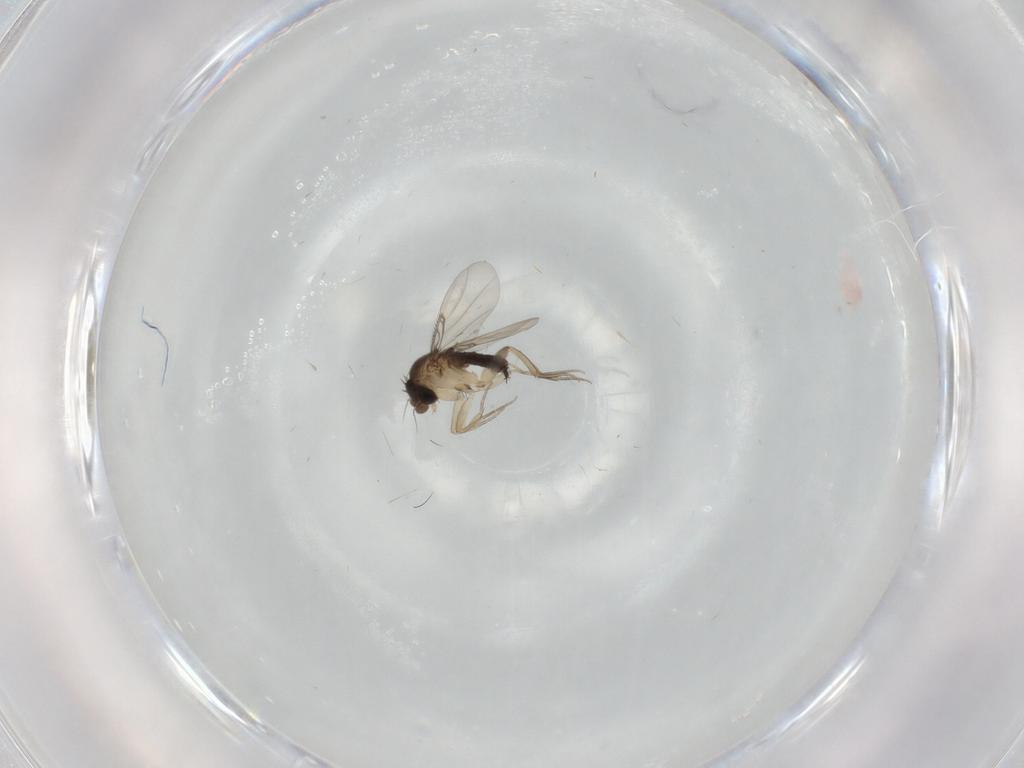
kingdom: Animalia
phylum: Arthropoda
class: Insecta
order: Diptera
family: Phoridae
